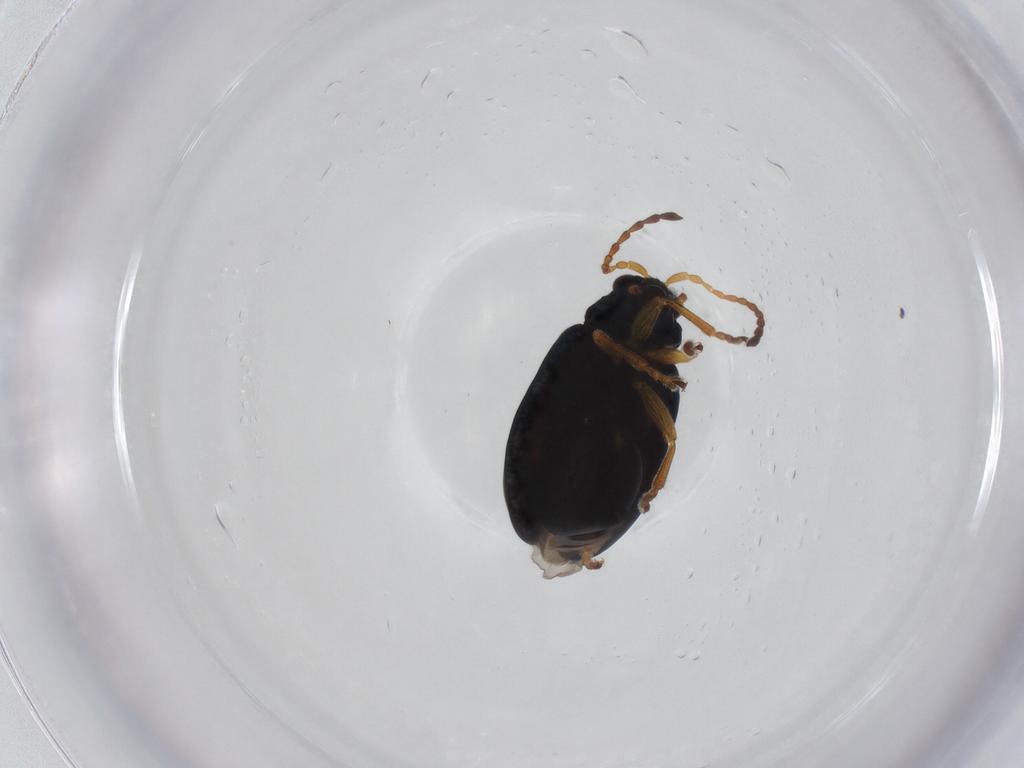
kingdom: Animalia
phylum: Arthropoda
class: Insecta
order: Coleoptera
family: Chrysomelidae
